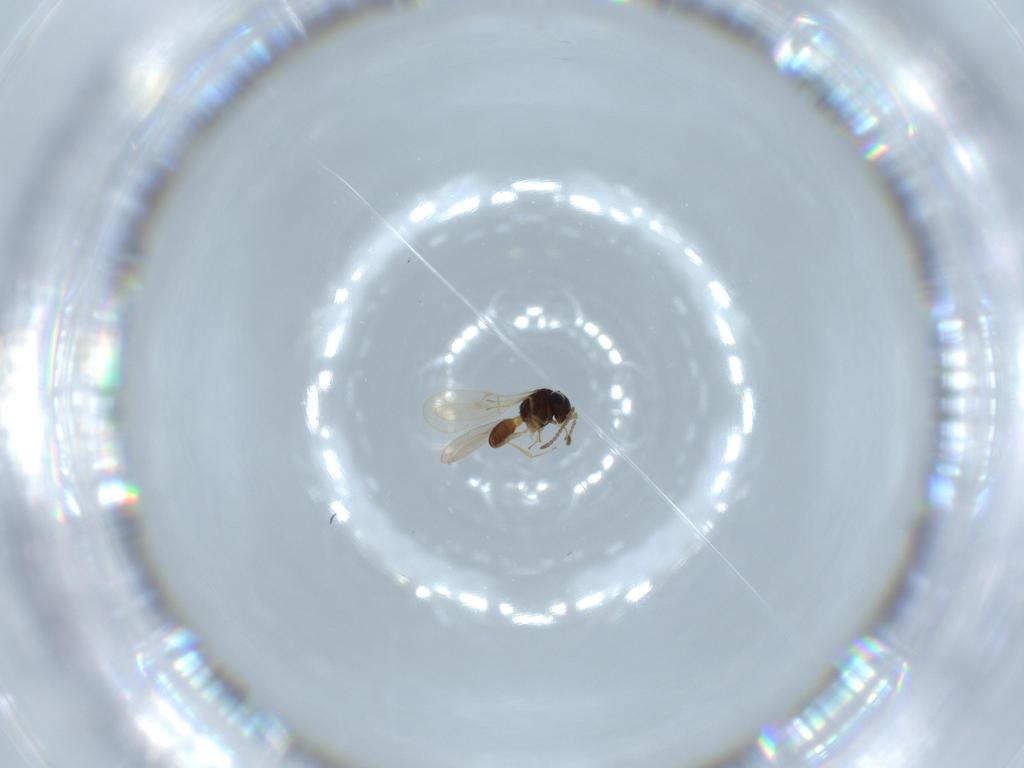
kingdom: Animalia
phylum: Arthropoda
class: Insecta
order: Hymenoptera
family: Scelionidae
